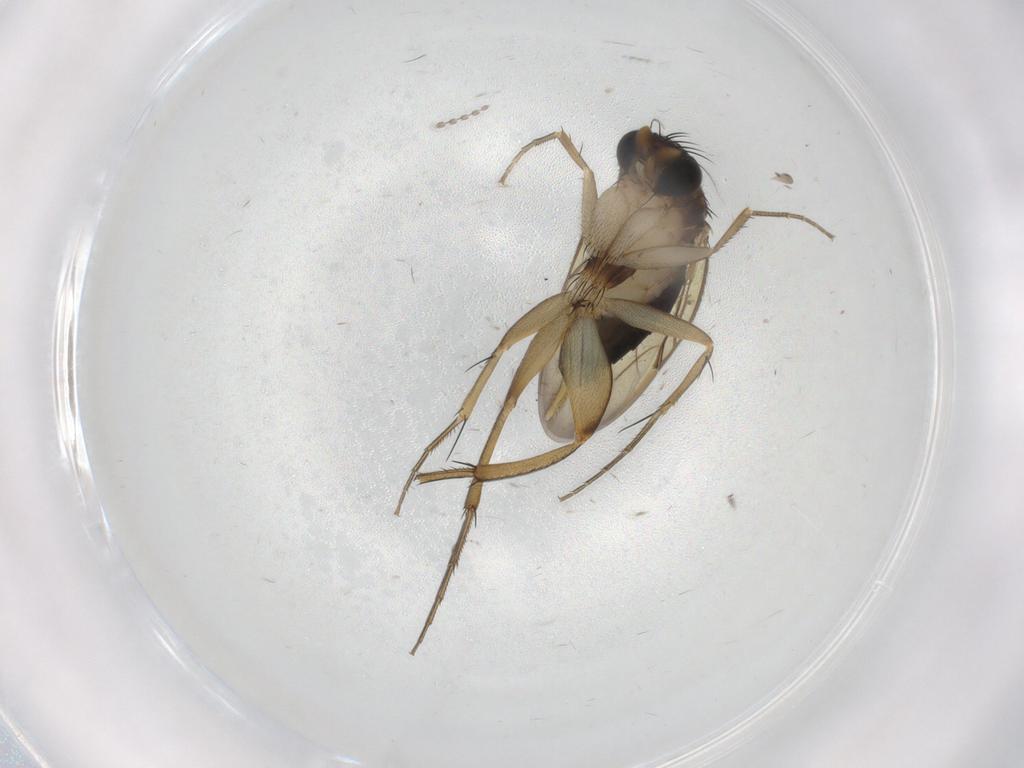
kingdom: Animalia
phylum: Arthropoda
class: Insecta
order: Diptera
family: Phoridae
